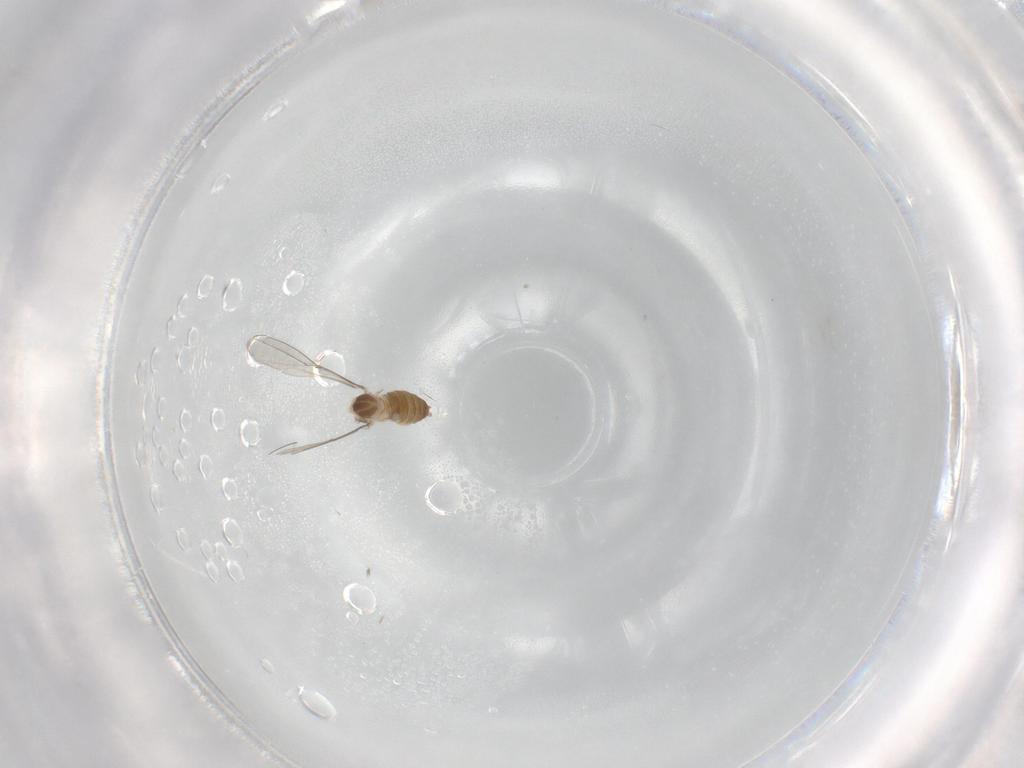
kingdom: Animalia
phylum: Arthropoda
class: Insecta
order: Diptera
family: Cecidomyiidae
